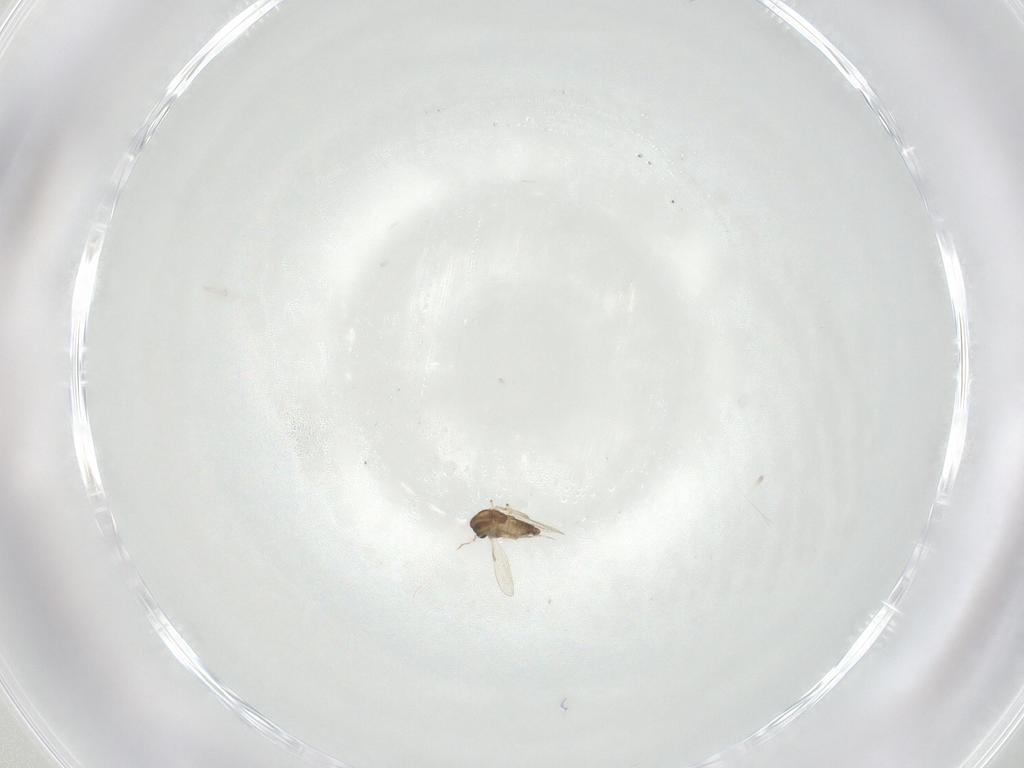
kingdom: Animalia
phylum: Arthropoda
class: Insecta
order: Diptera
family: Chironomidae
